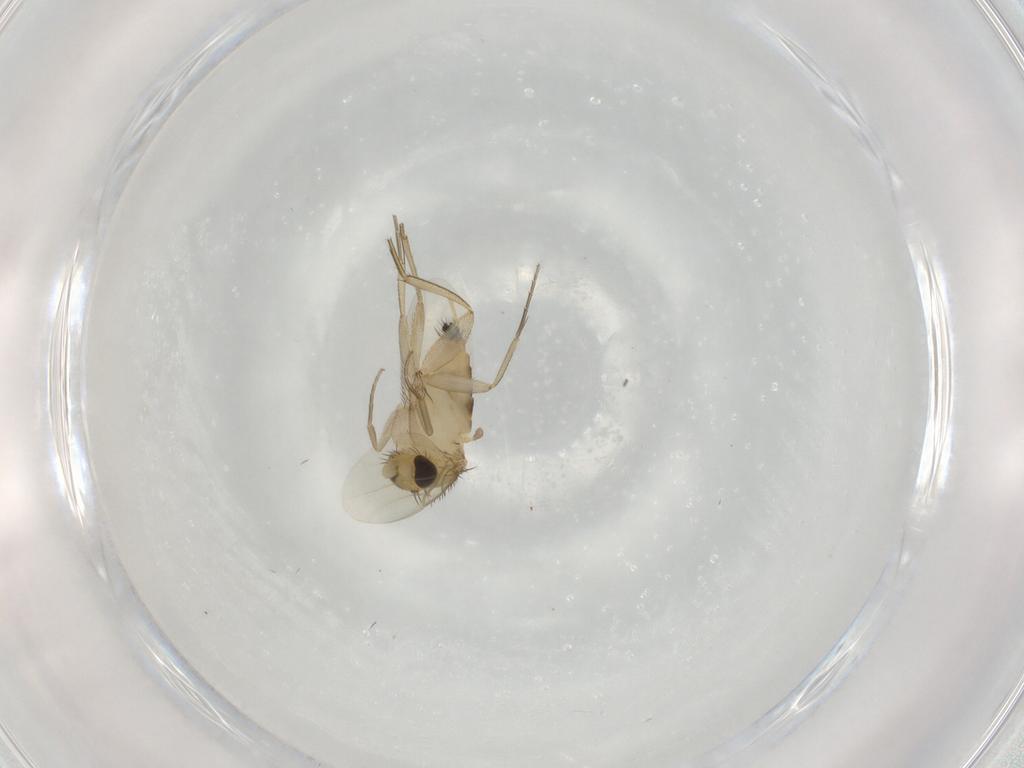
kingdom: Animalia
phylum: Arthropoda
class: Insecta
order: Diptera
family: Phoridae
